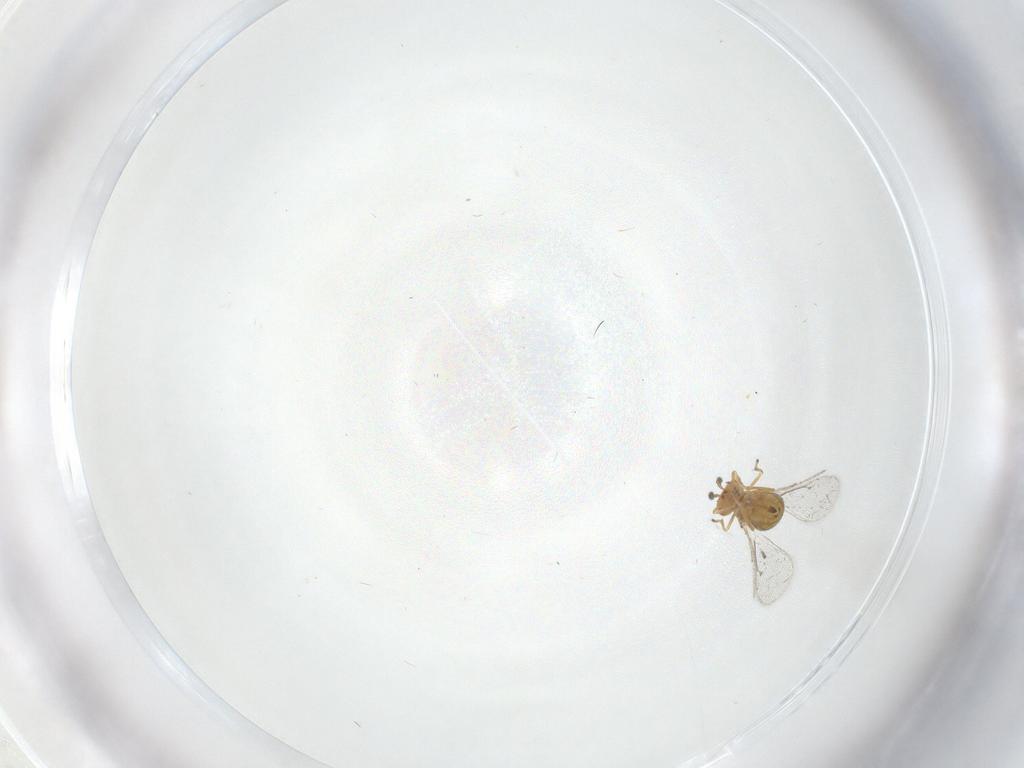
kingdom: Animalia
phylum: Arthropoda
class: Insecta
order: Hymenoptera
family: Eulophidae
